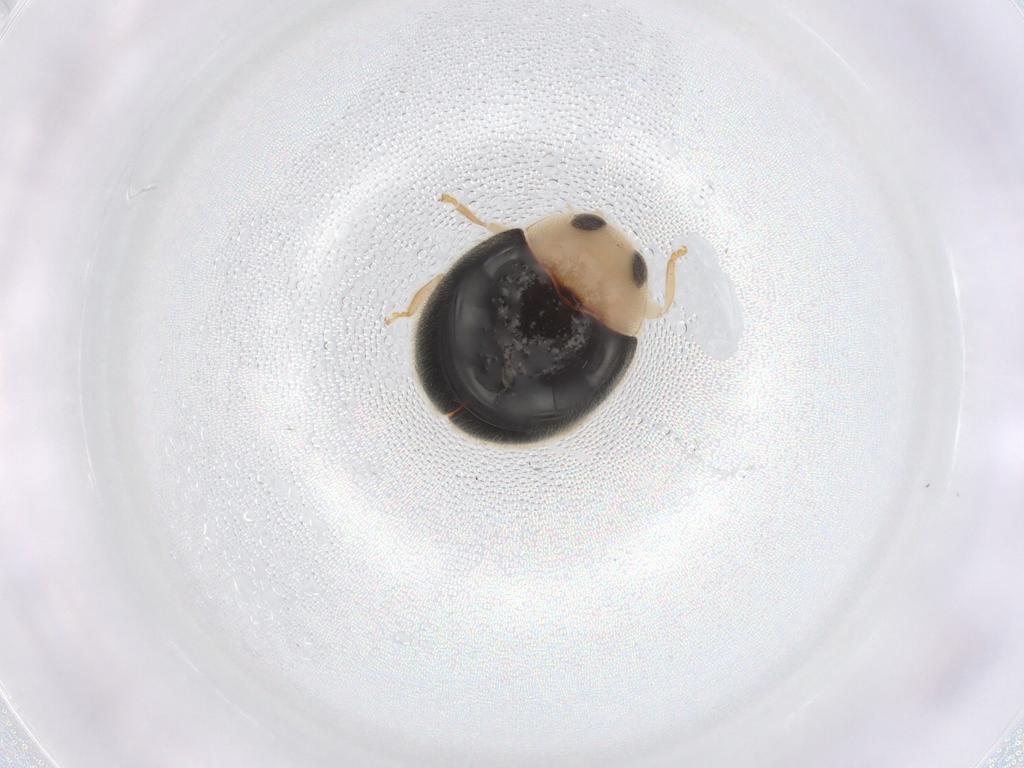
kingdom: Animalia
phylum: Arthropoda
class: Insecta
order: Coleoptera
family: Coccinellidae
